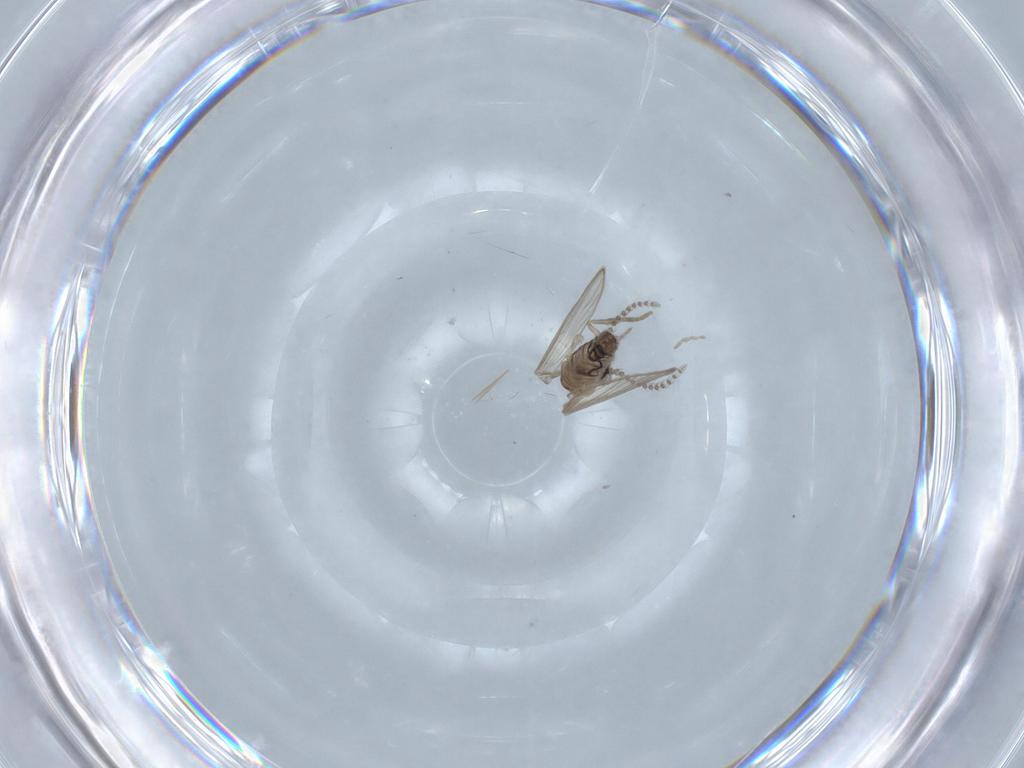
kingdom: Animalia
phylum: Arthropoda
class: Insecta
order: Diptera
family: Psychodidae
